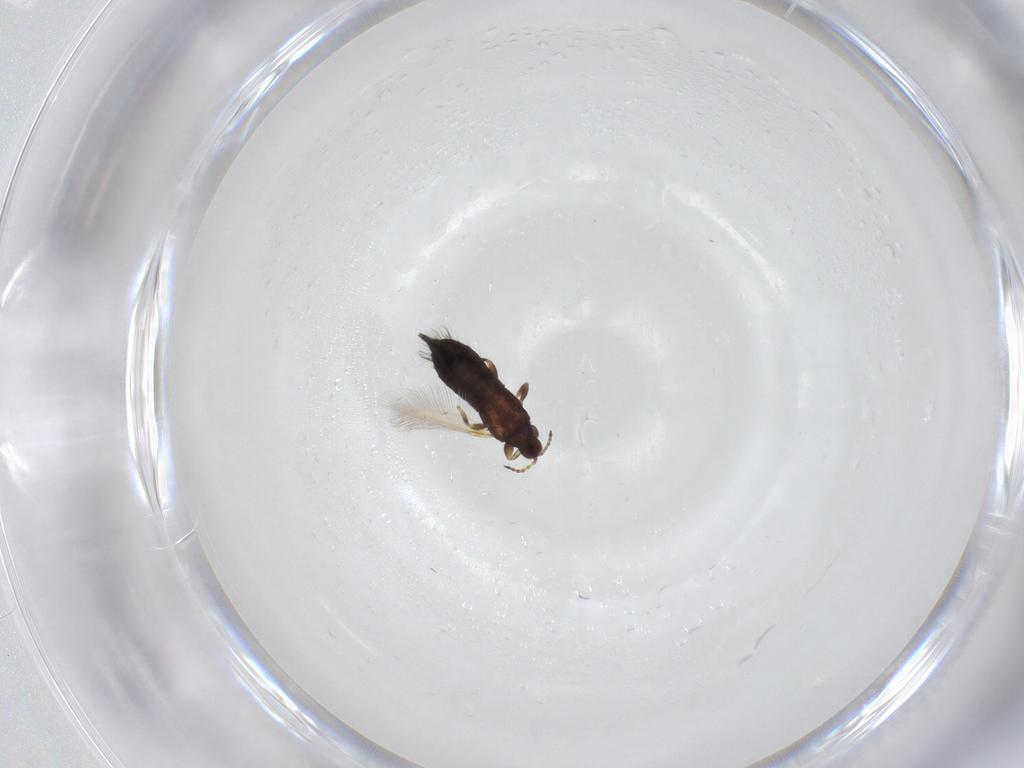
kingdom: Animalia
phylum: Arthropoda
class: Insecta
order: Thysanoptera
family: Phlaeothripidae
